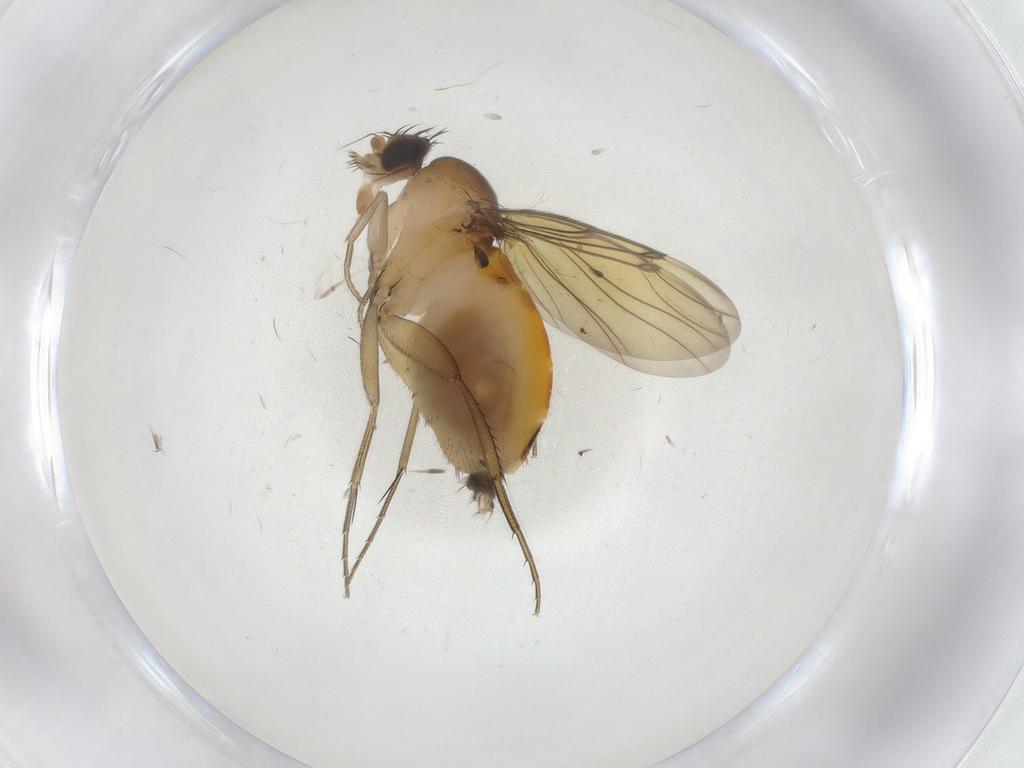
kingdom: Animalia
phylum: Arthropoda
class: Insecta
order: Diptera
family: Phoridae
